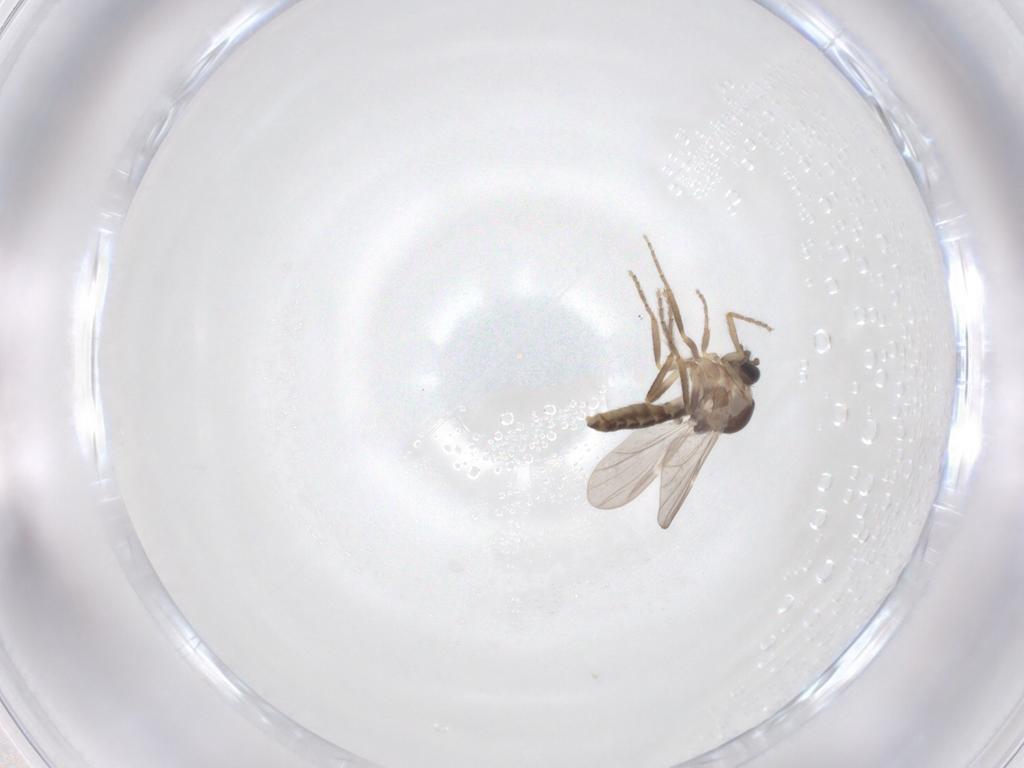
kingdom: Animalia
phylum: Arthropoda
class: Insecta
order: Diptera
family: Ceratopogonidae
